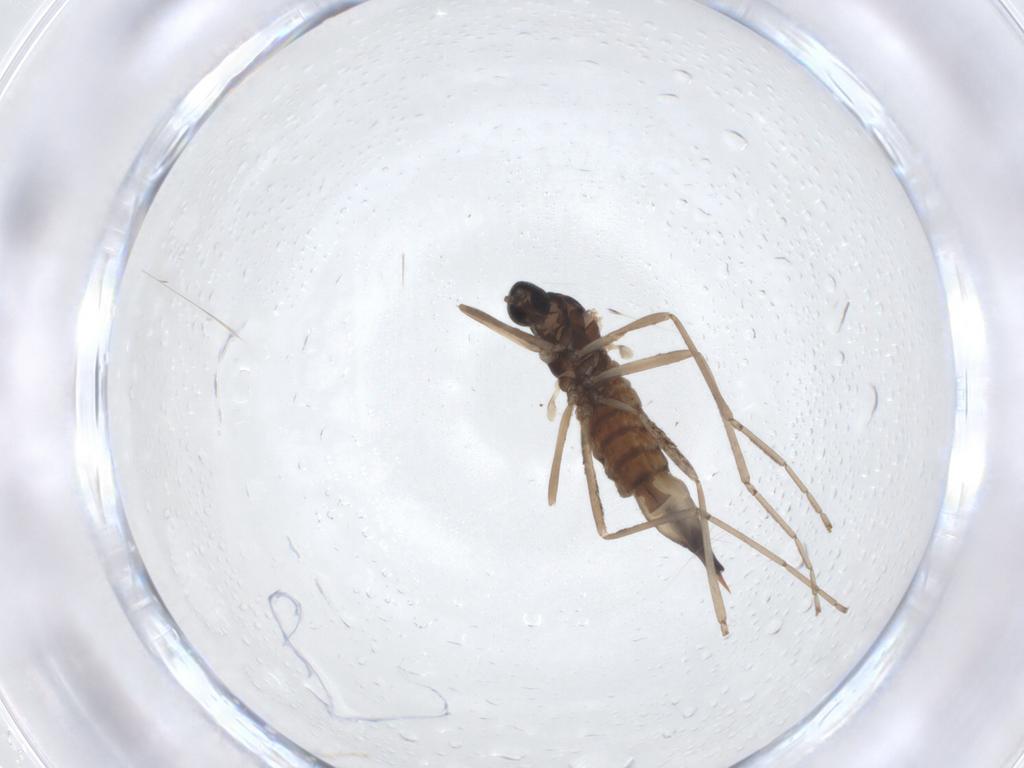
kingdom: Animalia
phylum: Arthropoda
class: Insecta
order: Diptera
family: Cecidomyiidae
